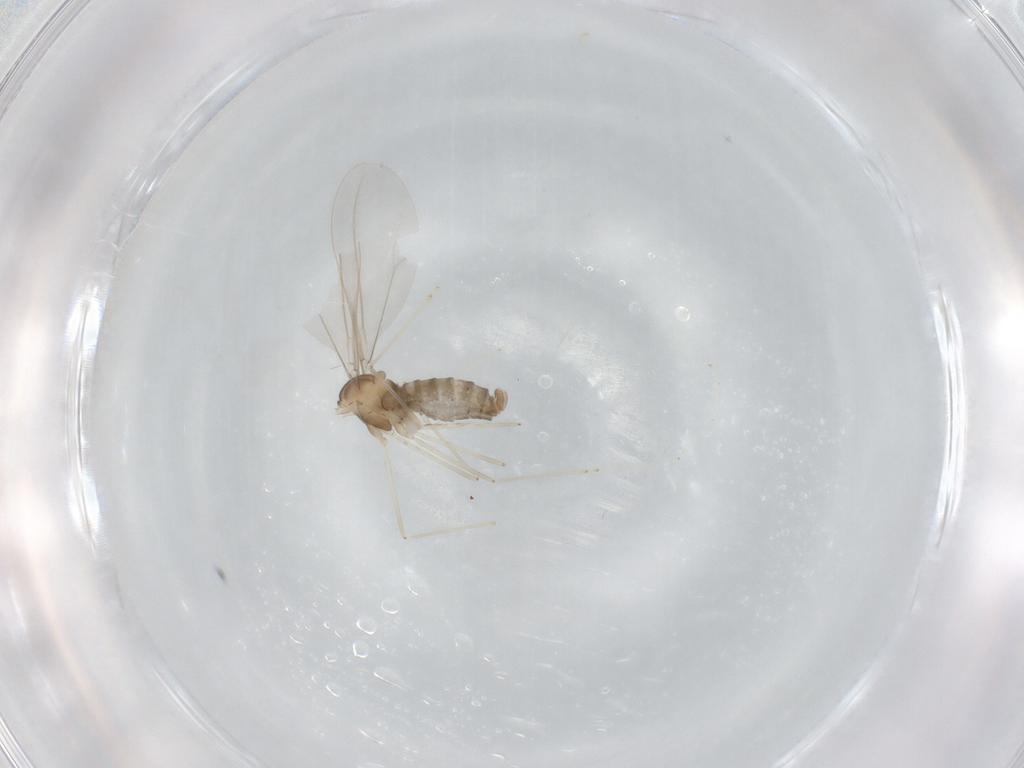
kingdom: Animalia
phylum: Arthropoda
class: Insecta
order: Diptera
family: Cecidomyiidae
